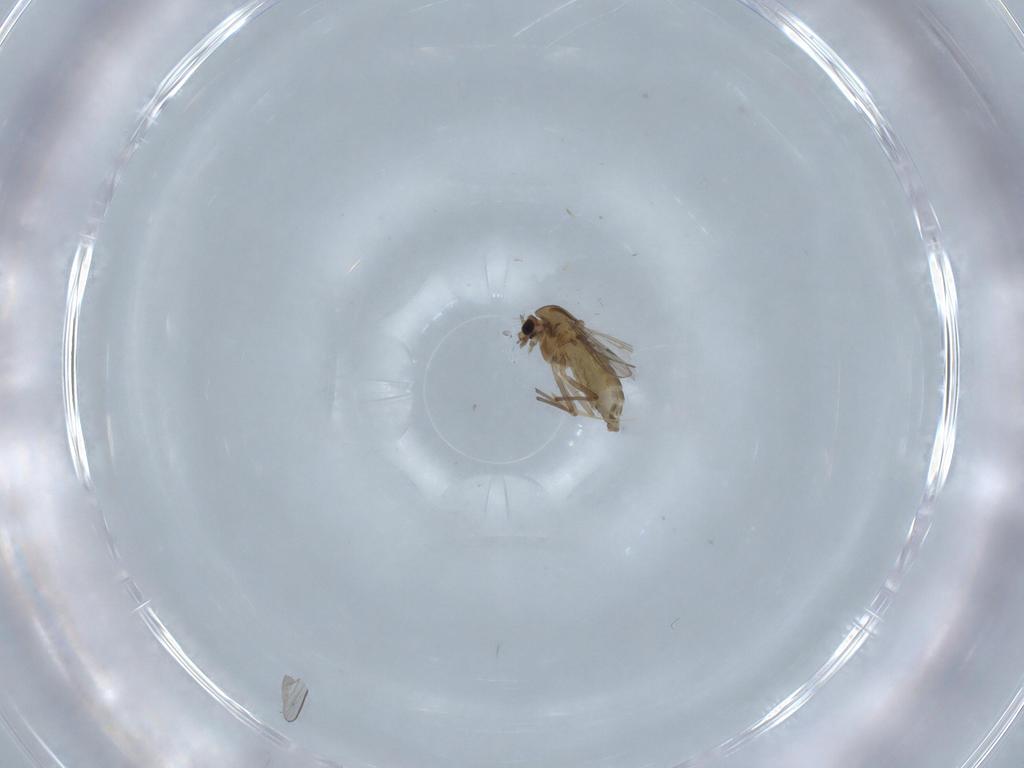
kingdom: Animalia
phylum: Arthropoda
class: Insecta
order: Diptera
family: Chironomidae
